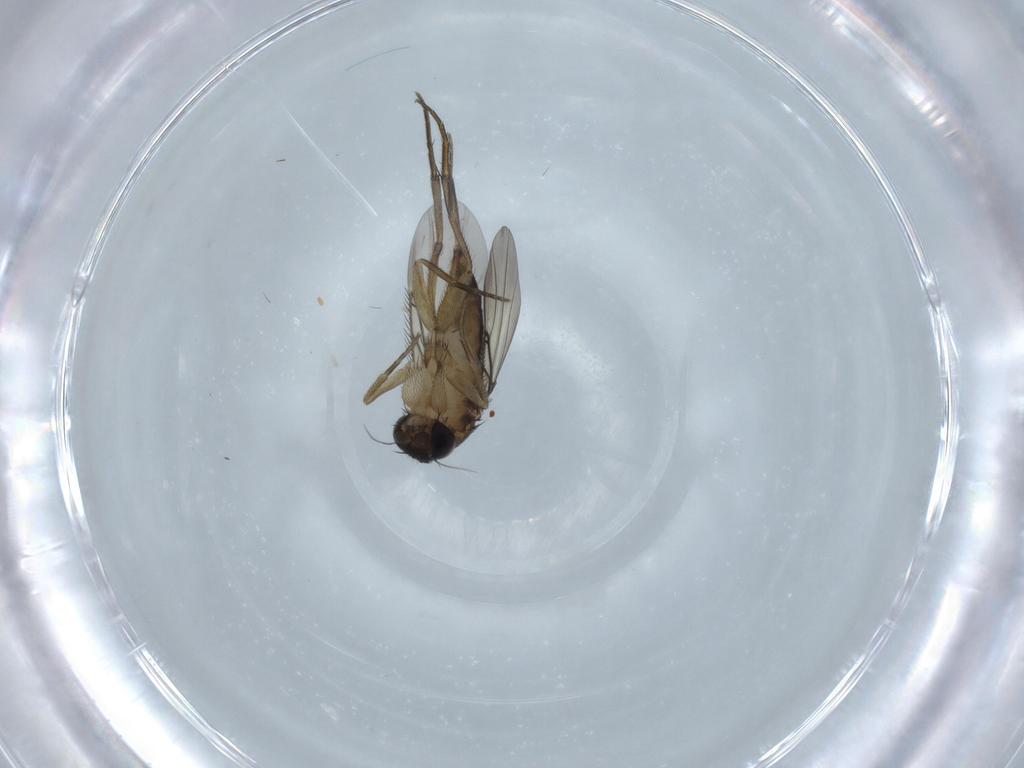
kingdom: Animalia
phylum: Arthropoda
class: Insecta
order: Diptera
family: Phoridae
